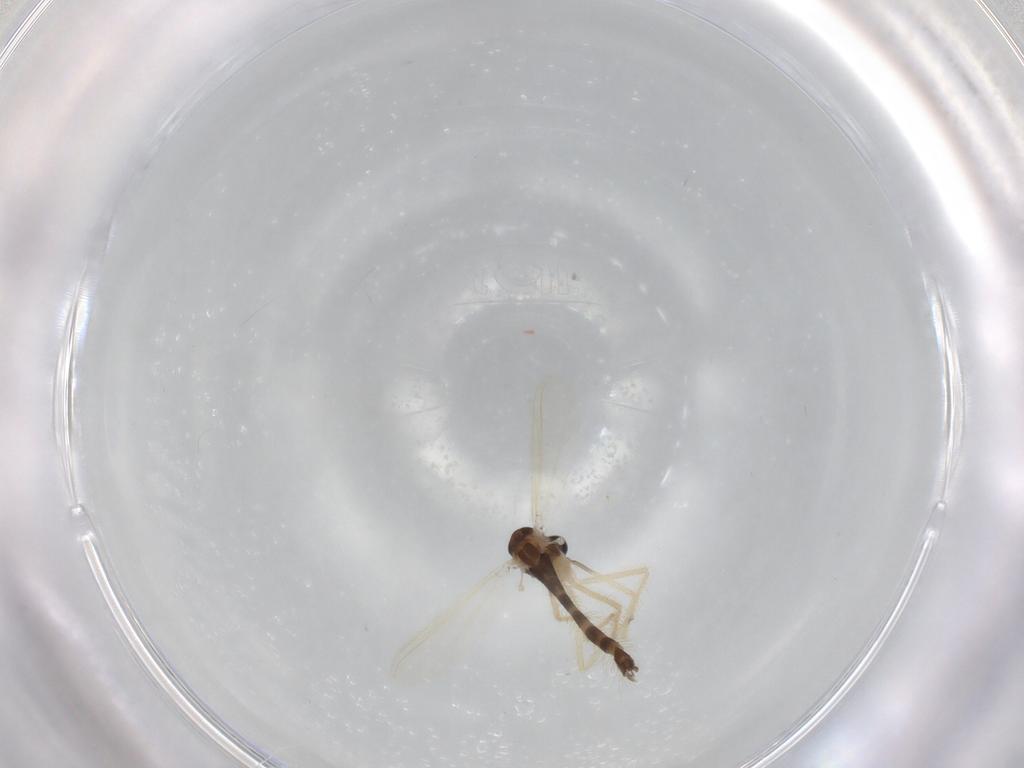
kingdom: Animalia
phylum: Arthropoda
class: Insecta
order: Diptera
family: Chironomidae
